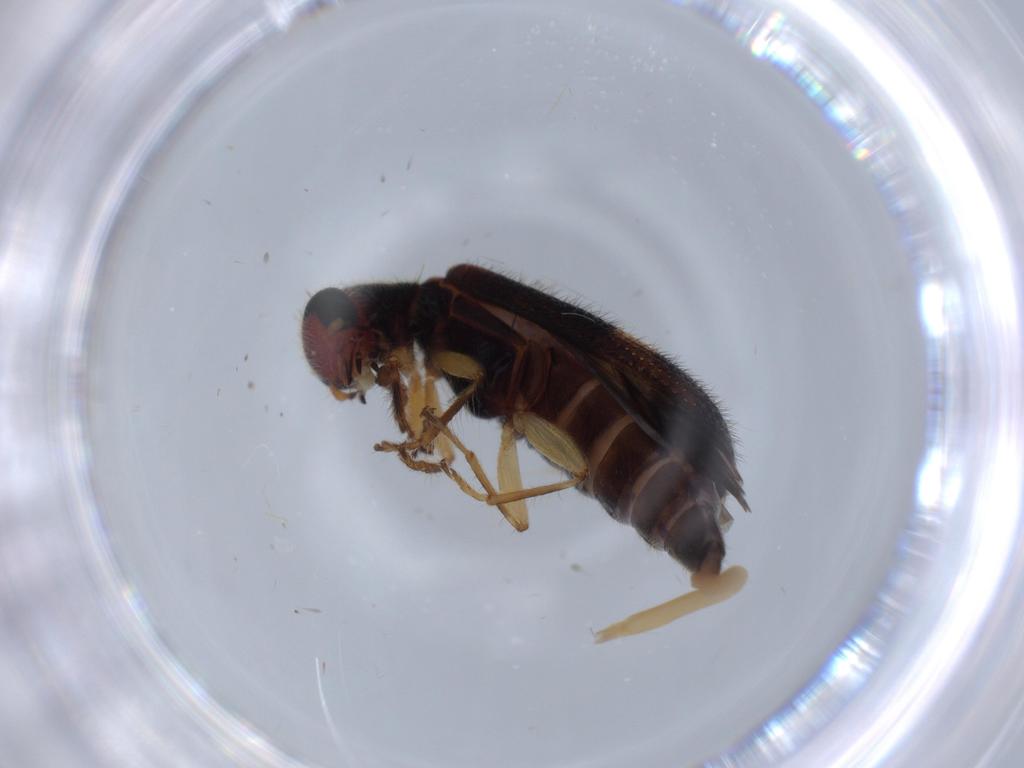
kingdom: Animalia
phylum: Arthropoda
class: Insecta
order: Coleoptera
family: Cleridae
